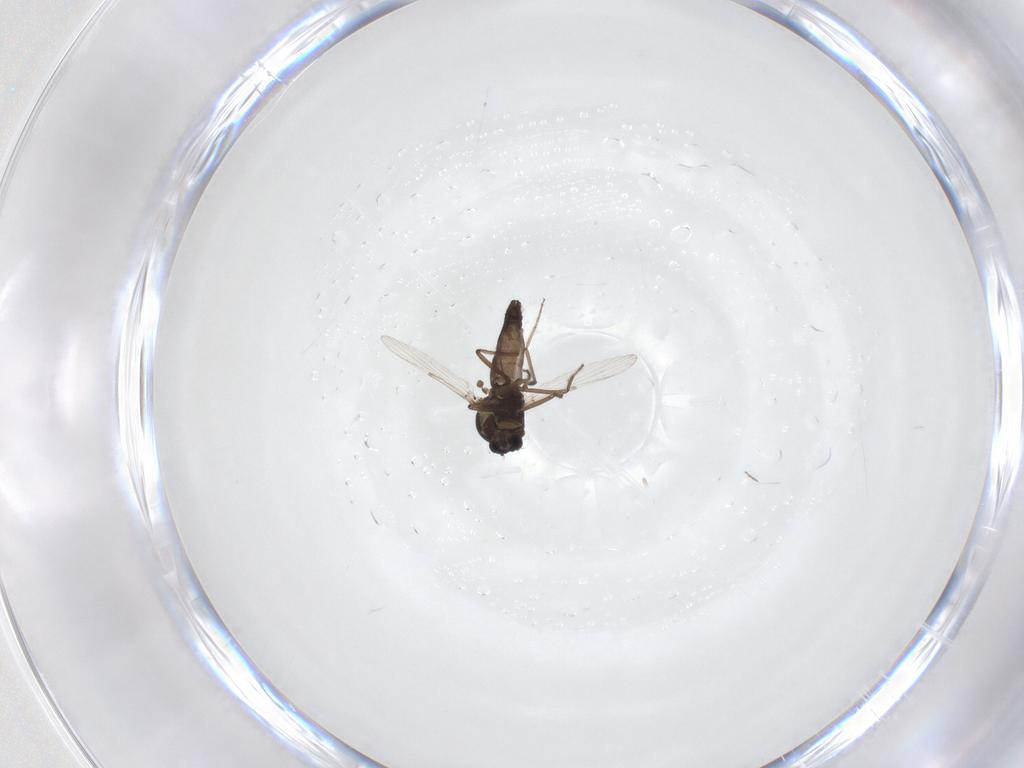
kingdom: Animalia
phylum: Arthropoda
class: Insecta
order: Diptera
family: Ceratopogonidae
